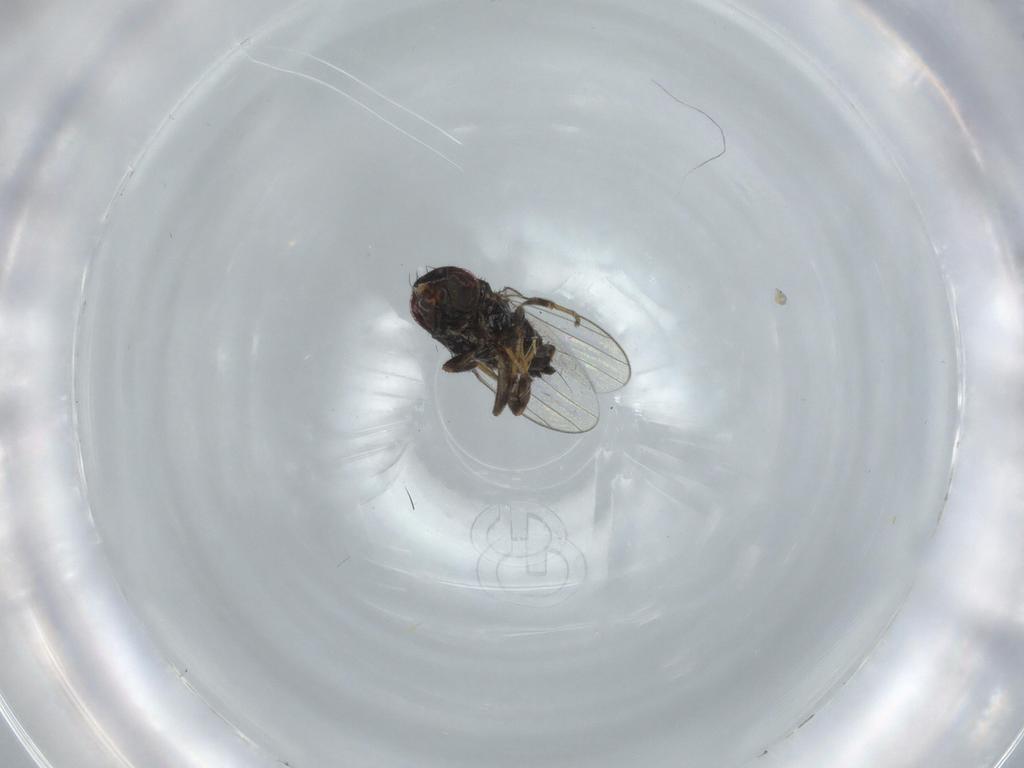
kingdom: Animalia
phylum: Arthropoda
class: Insecta
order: Diptera
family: Chloropidae
